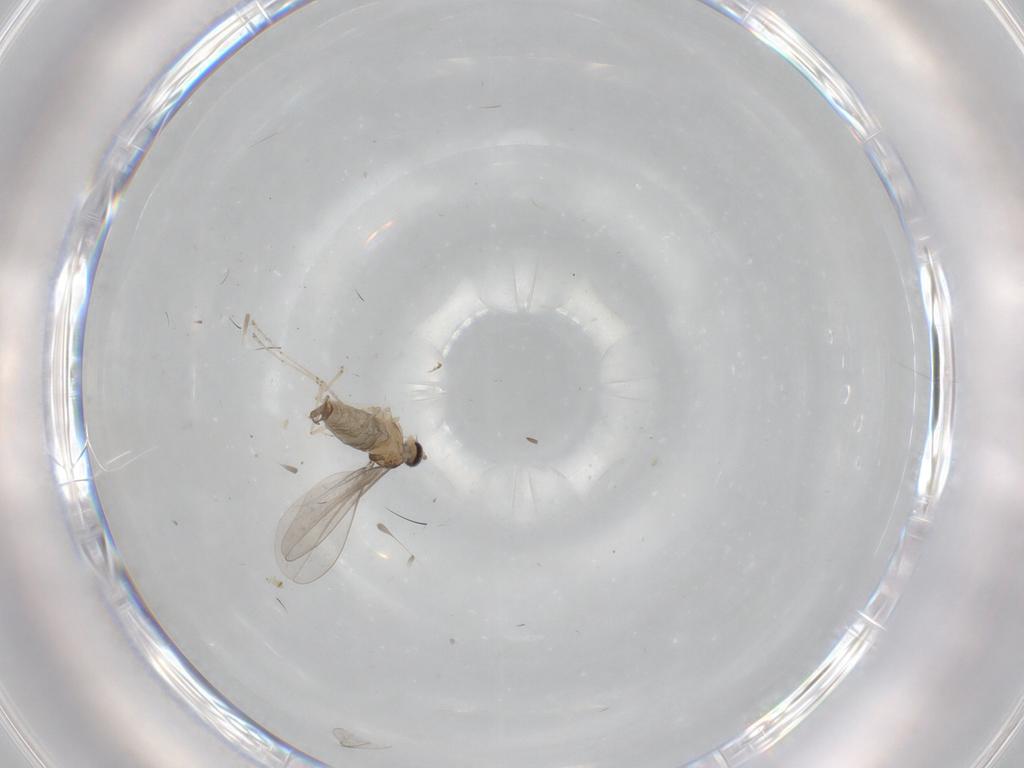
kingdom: Animalia
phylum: Arthropoda
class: Insecta
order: Diptera
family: Cecidomyiidae
